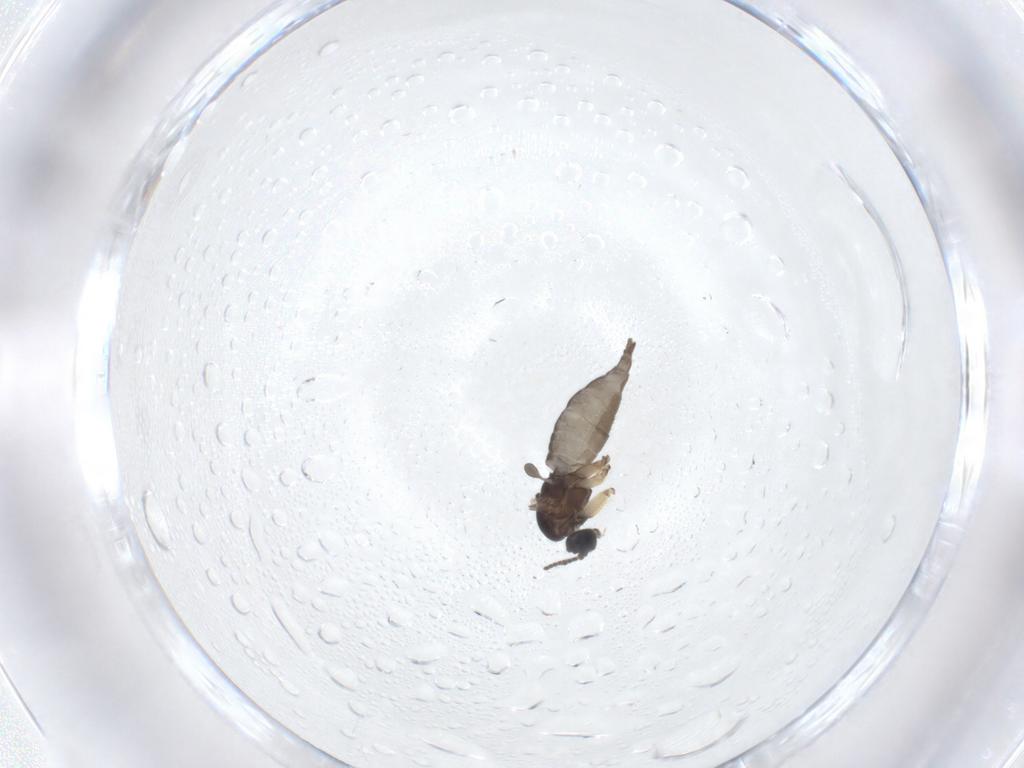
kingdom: Animalia
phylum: Arthropoda
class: Insecta
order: Diptera
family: Sciaridae
